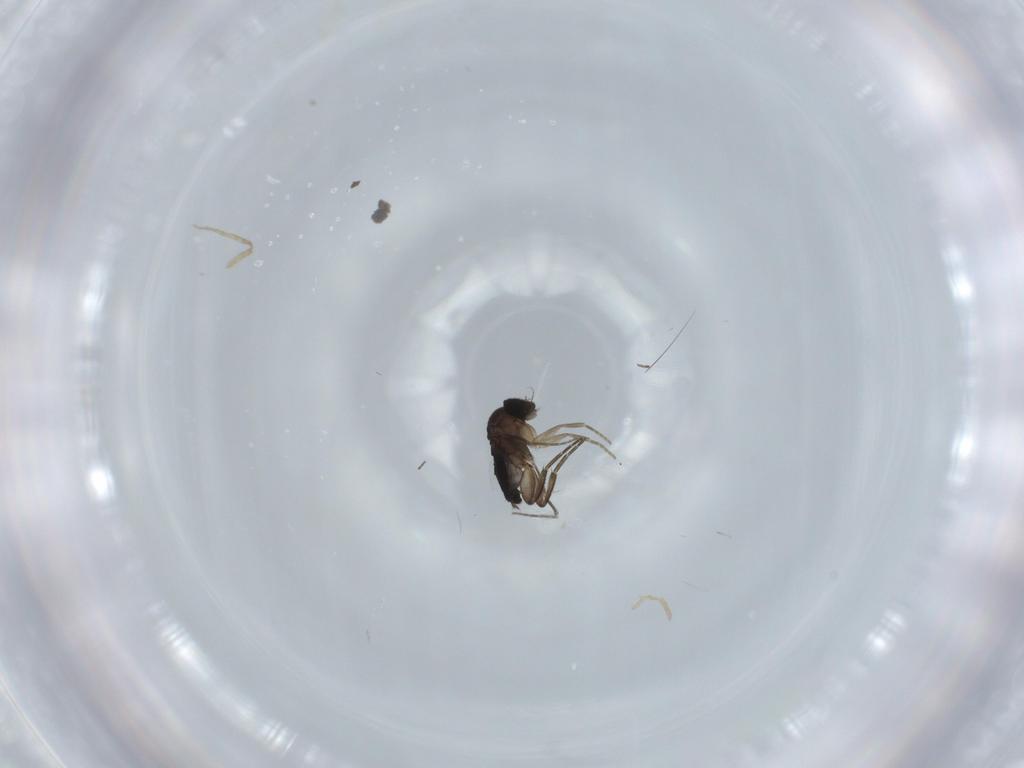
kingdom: Animalia
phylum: Arthropoda
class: Insecta
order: Diptera
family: Phoridae
